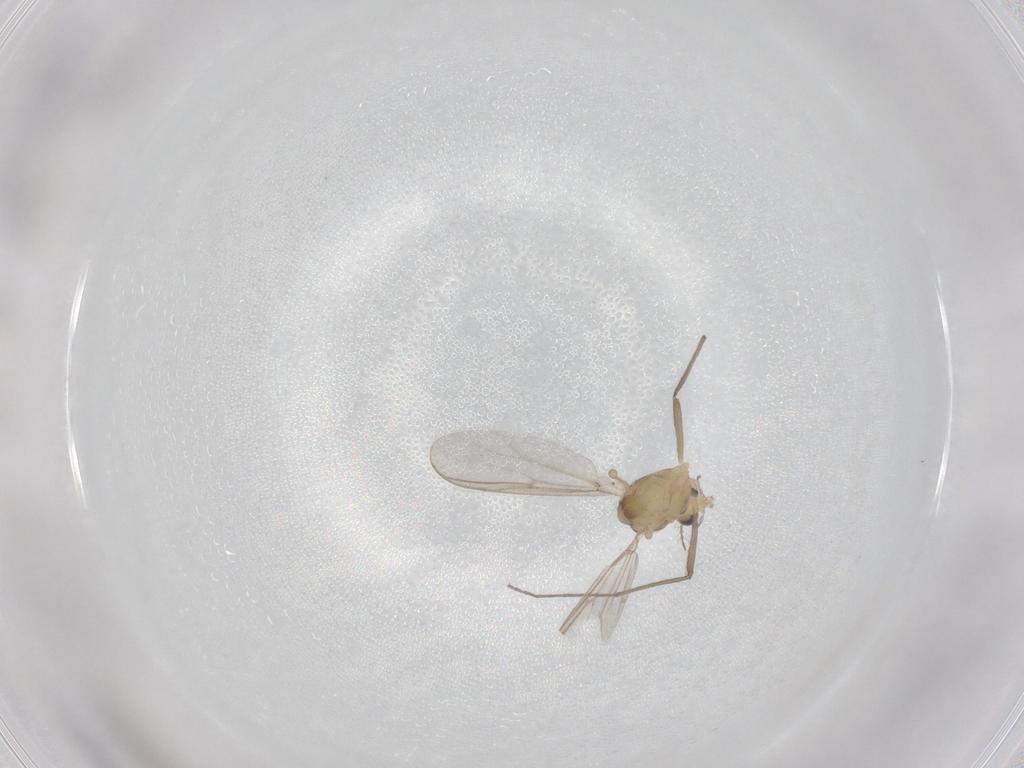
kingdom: Animalia
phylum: Arthropoda
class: Insecta
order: Diptera
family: Chironomidae
